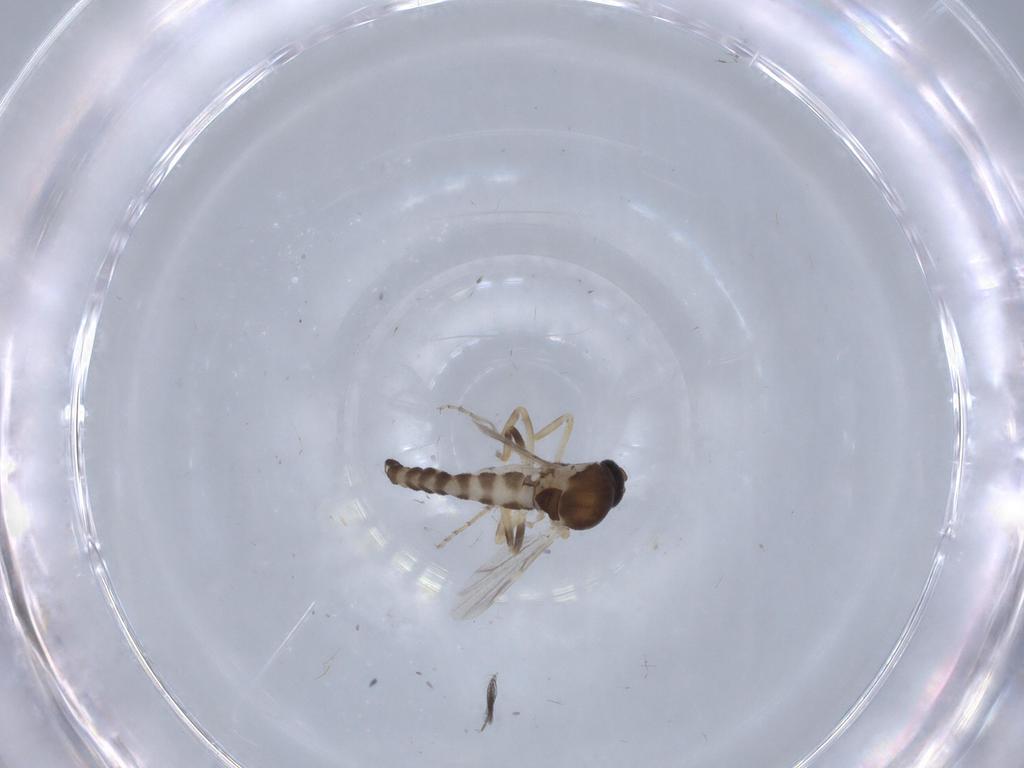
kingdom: Animalia
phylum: Arthropoda
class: Insecta
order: Diptera
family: Ceratopogonidae
